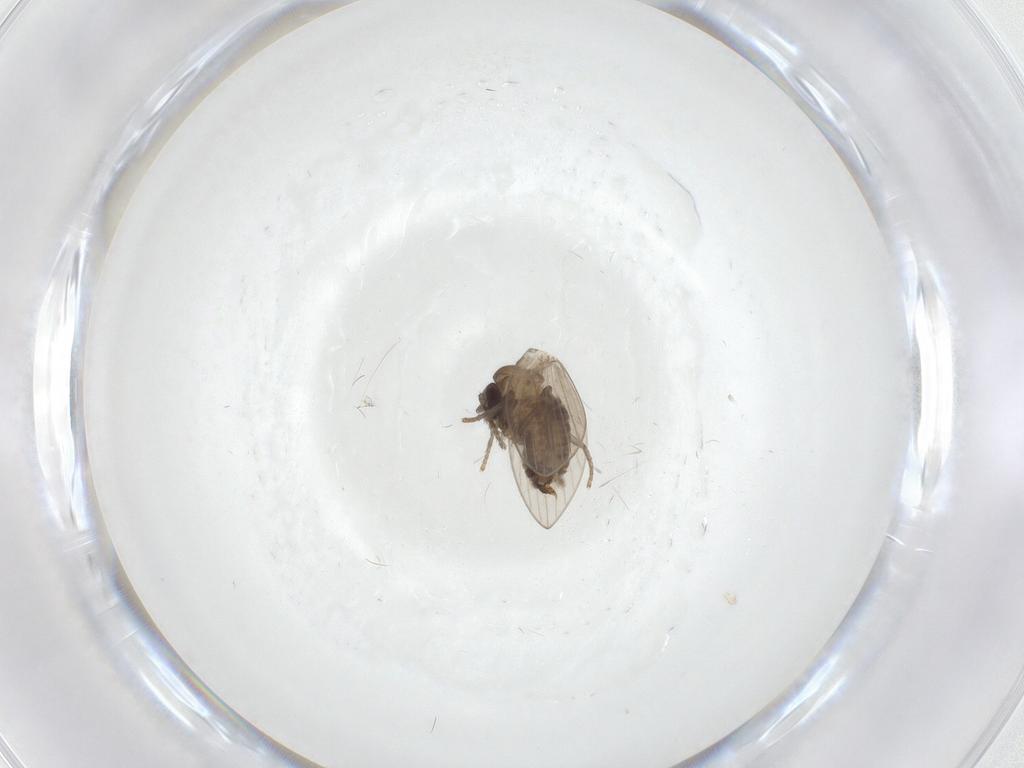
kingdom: Animalia
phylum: Arthropoda
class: Insecta
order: Diptera
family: Psychodidae
